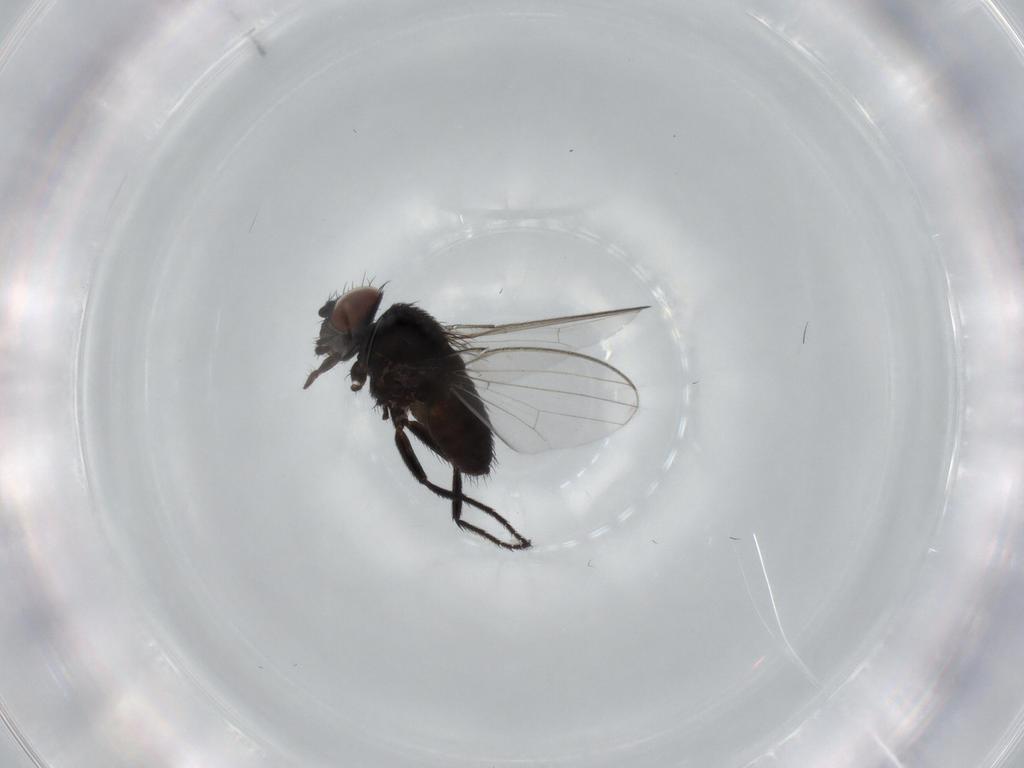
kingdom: Animalia
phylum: Arthropoda
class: Insecta
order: Diptera
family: Milichiidae
